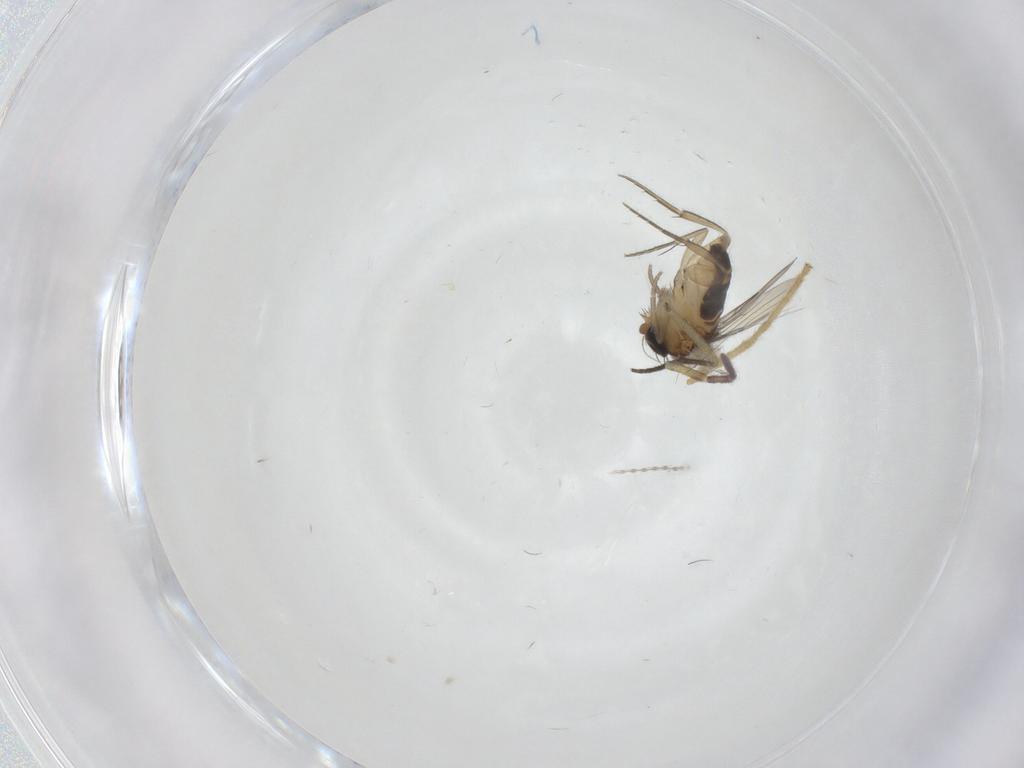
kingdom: Animalia
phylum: Arthropoda
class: Insecta
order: Diptera
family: Phoridae
